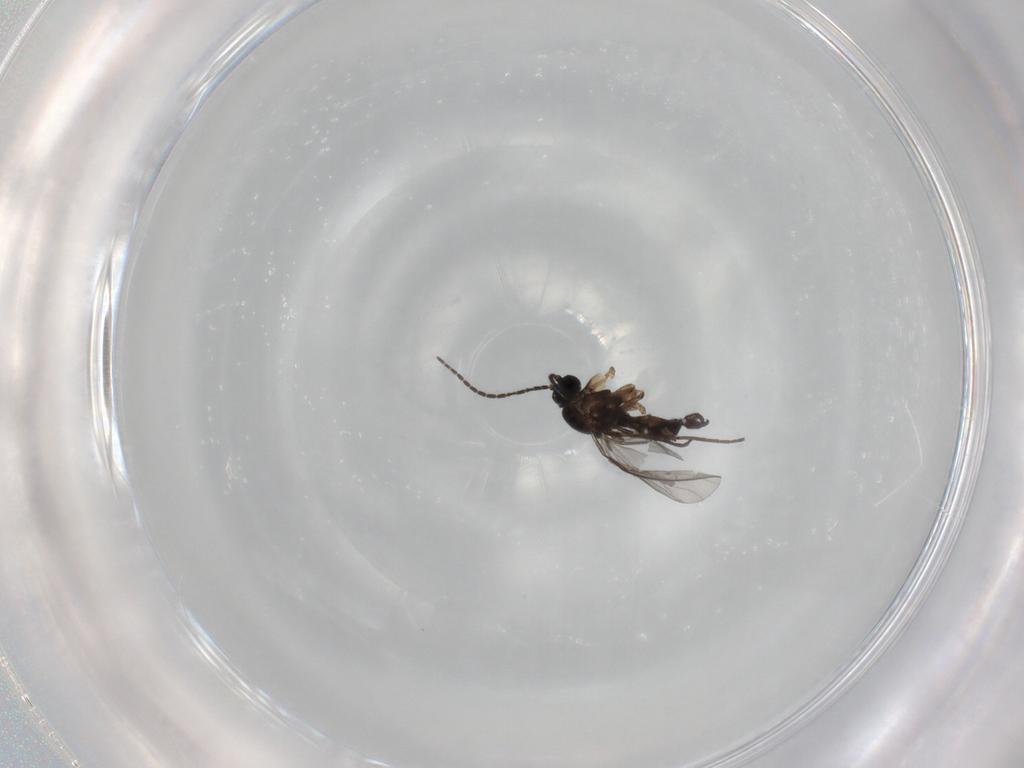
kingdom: Animalia
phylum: Arthropoda
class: Insecta
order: Diptera
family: Sciaridae
